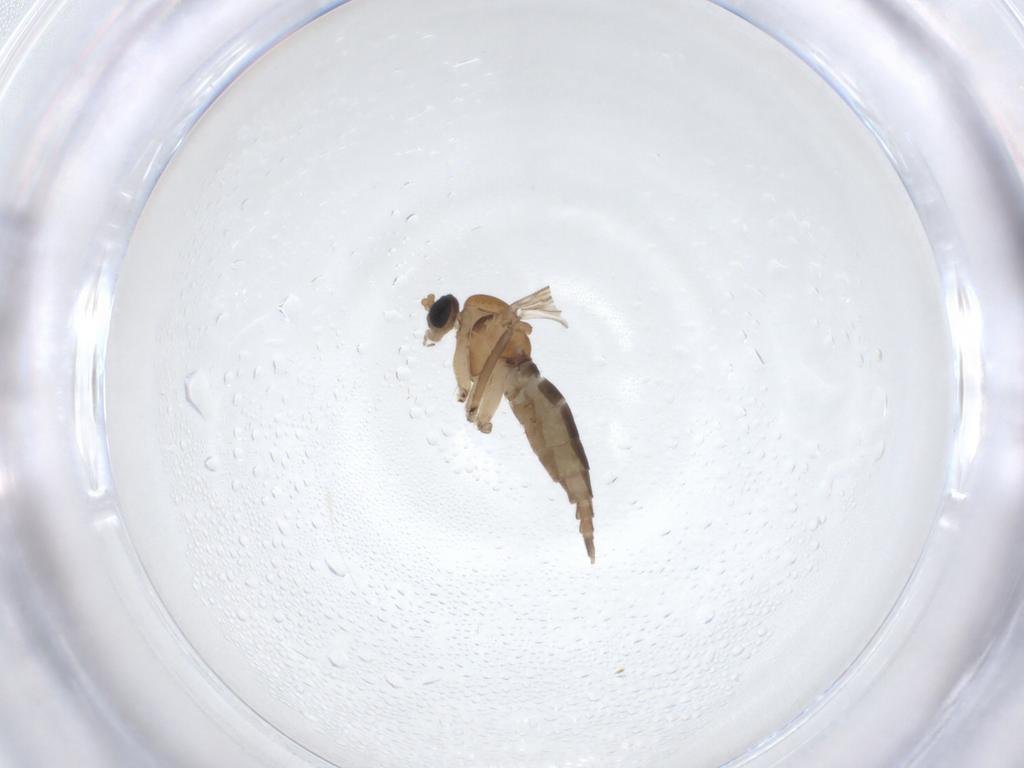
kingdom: Animalia
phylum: Arthropoda
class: Insecta
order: Diptera
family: Sciaridae
